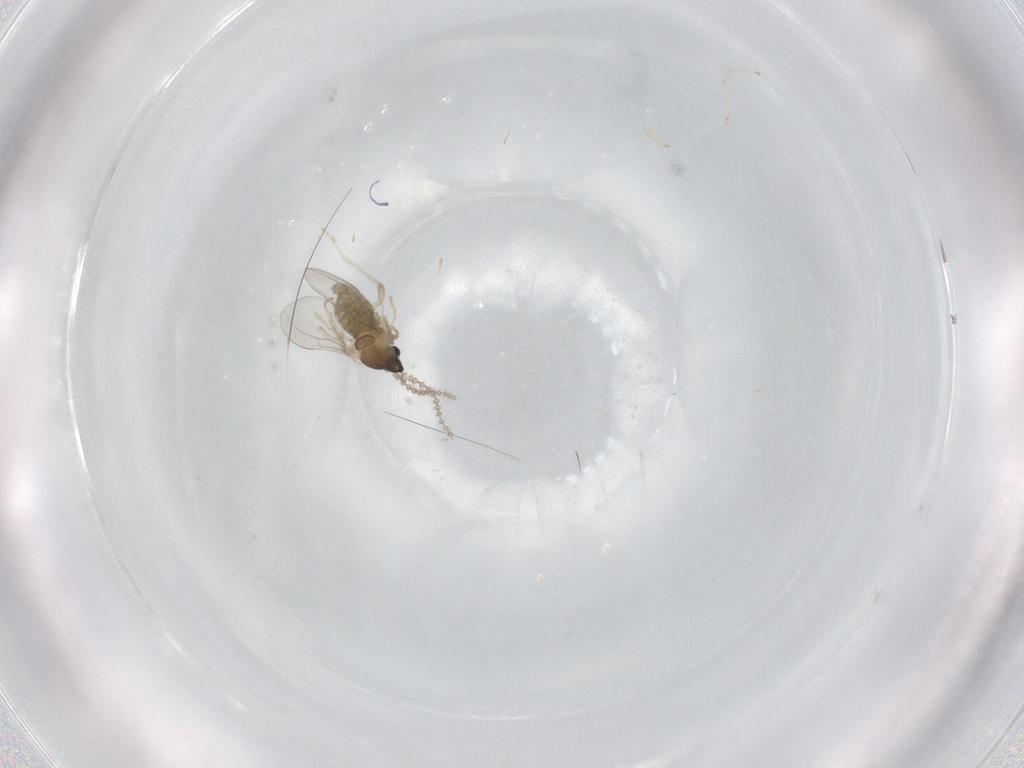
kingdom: Animalia
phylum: Arthropoda
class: Insecta
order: Diptera
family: Cecidomyiidae
